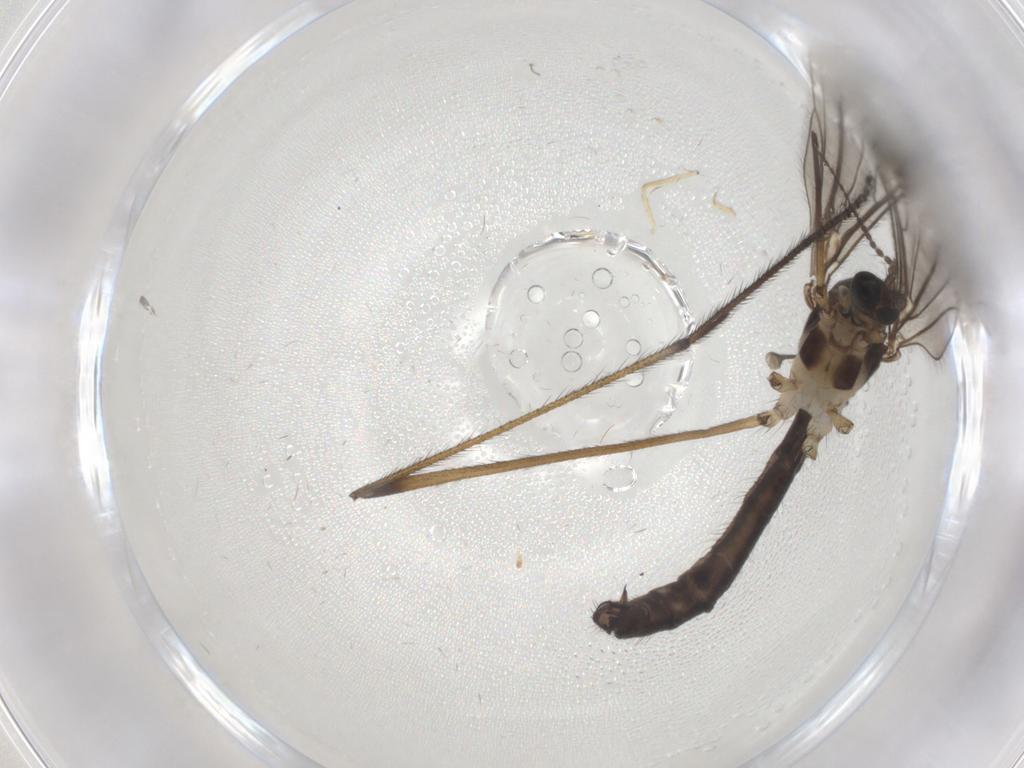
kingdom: Animalia
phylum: Arthropoda
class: Insecta
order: Diptera
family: Limoniidae
